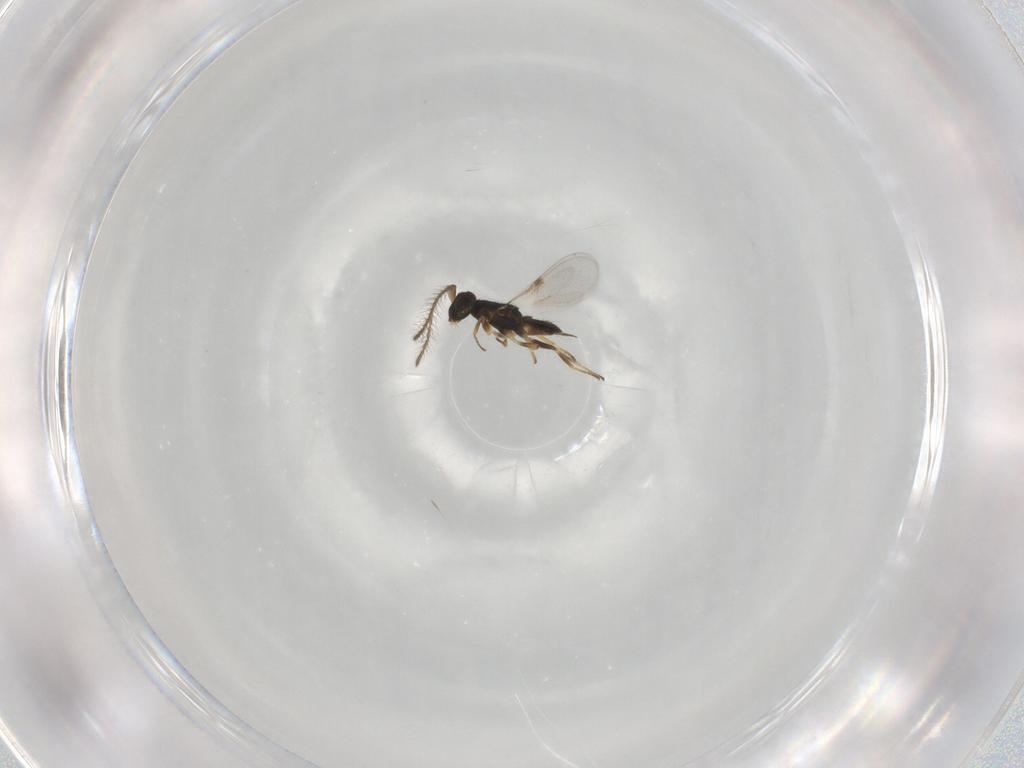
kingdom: Animalia
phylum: Arthropoda
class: Insecta
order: Hymenoptera
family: Encyrtidae
